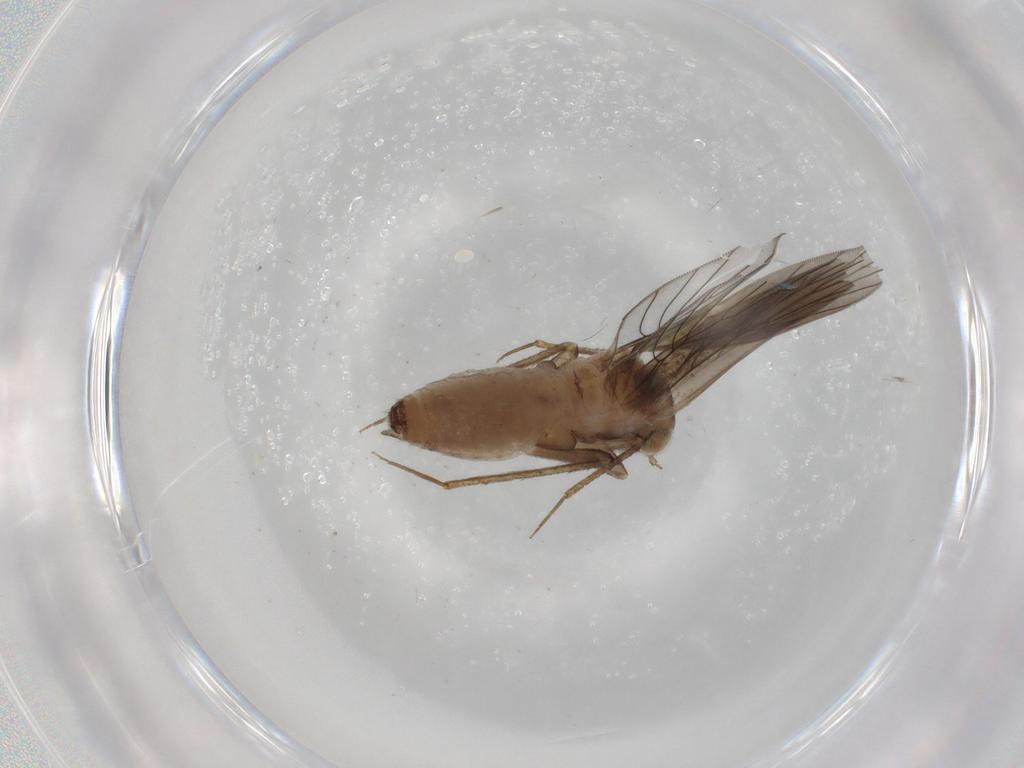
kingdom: Animalia
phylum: Arthropoda
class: Insecta
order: Psocodea
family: Lepidopsocidae
